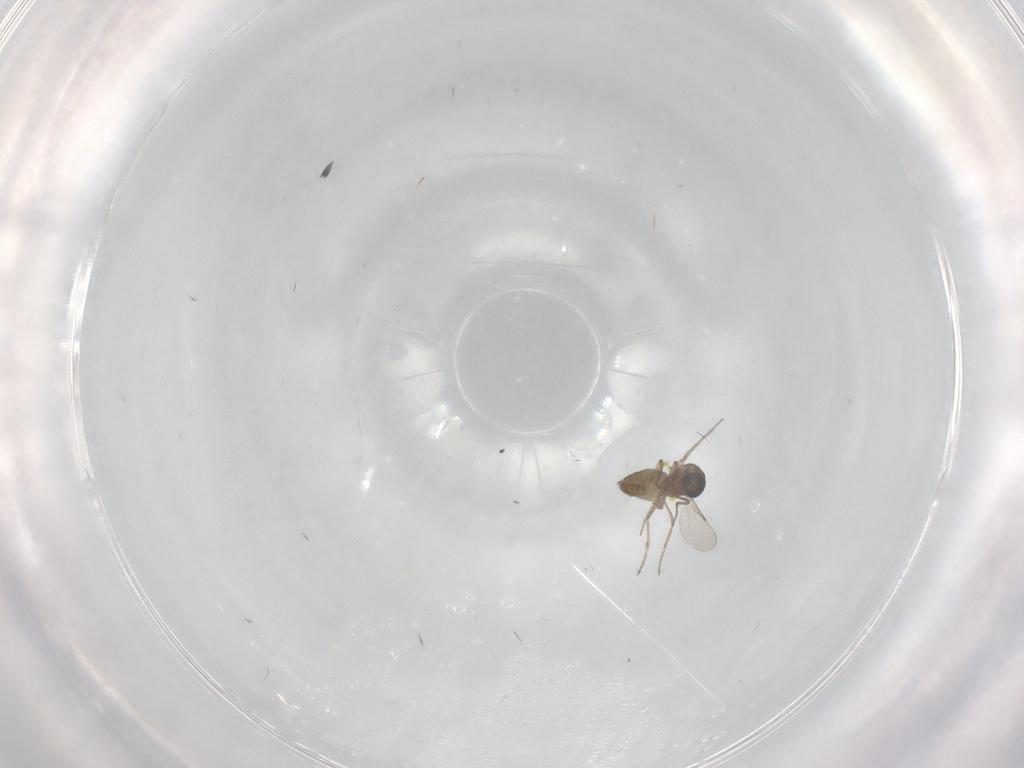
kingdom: Animalia
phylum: Arthropoda
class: Insecta
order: Diptera
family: Ceratopogonidae
